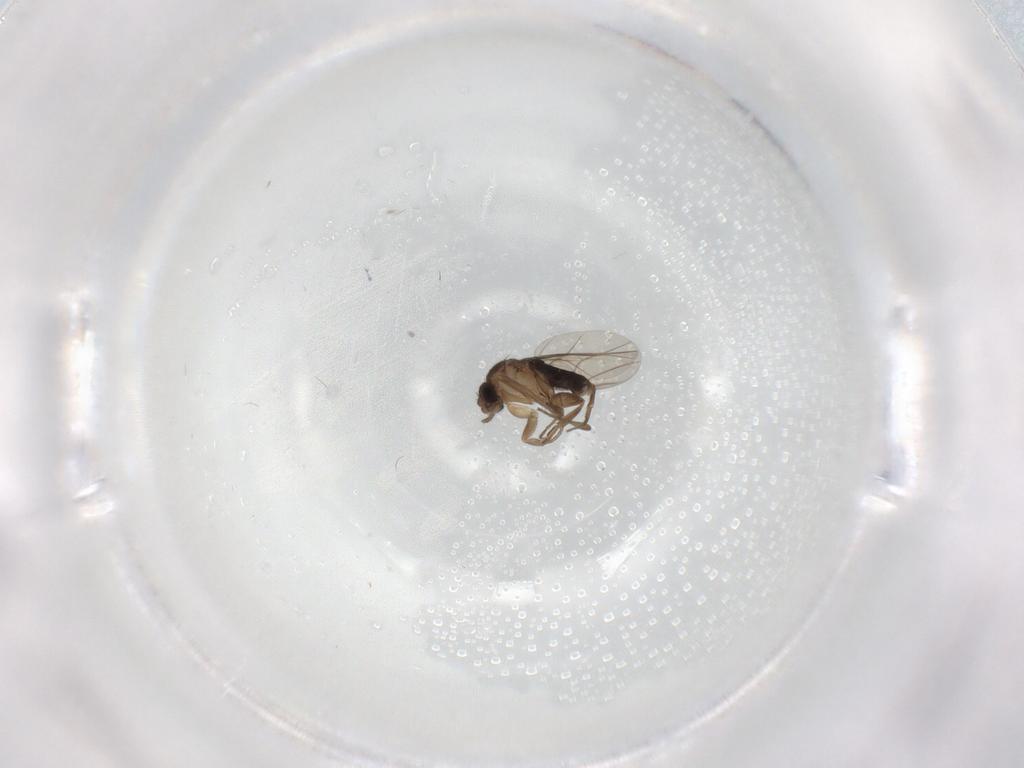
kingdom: Animalia
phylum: Arthropoda
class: Insecta
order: Diptera
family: Phoridae
